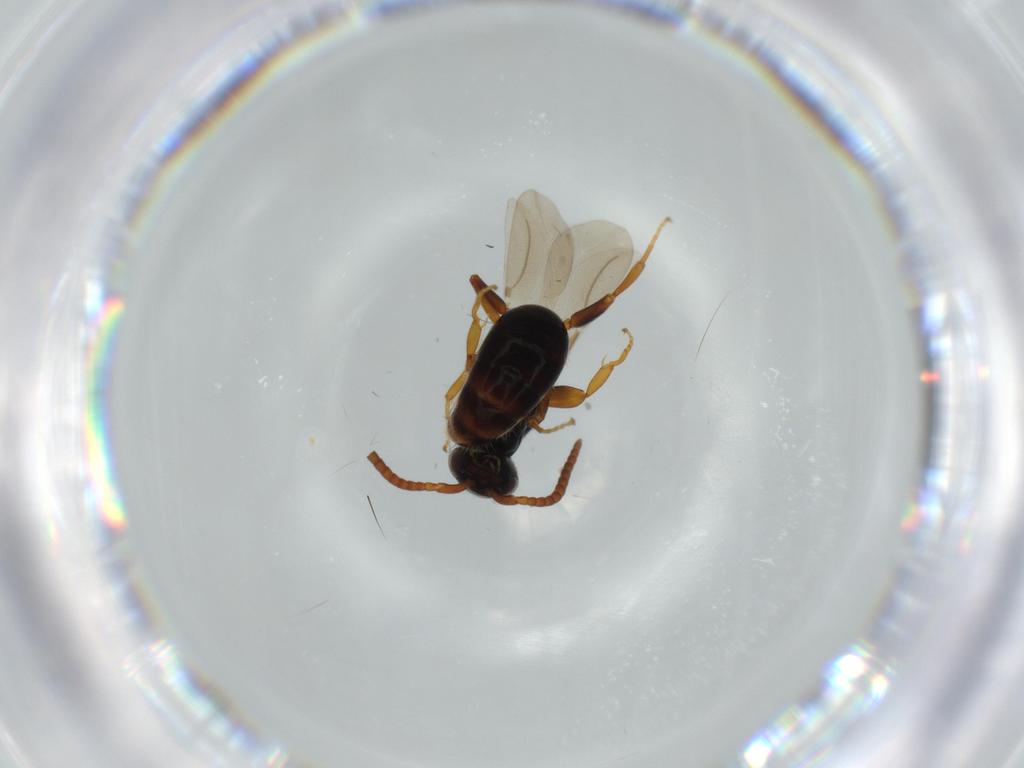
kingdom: Animalia
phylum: Arthropoda
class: Insecta
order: Hymenoptera
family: Bethylidae
